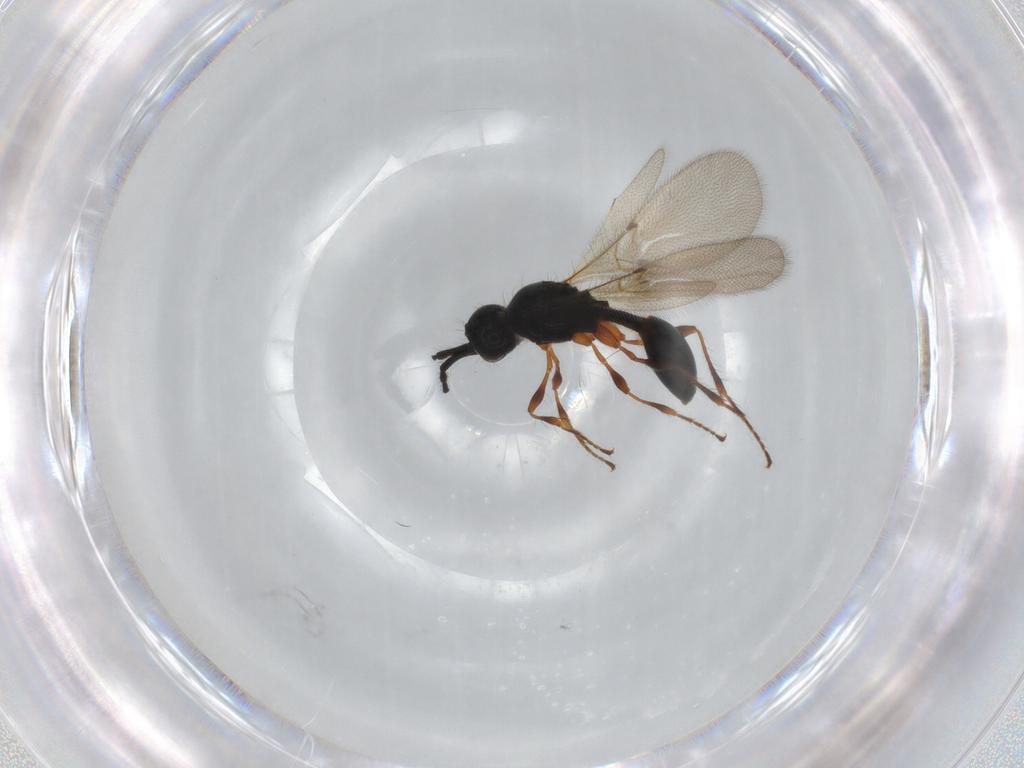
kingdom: Animalia
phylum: Arthropoda
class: Insecta
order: Hymenoptera
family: Diapriidae
